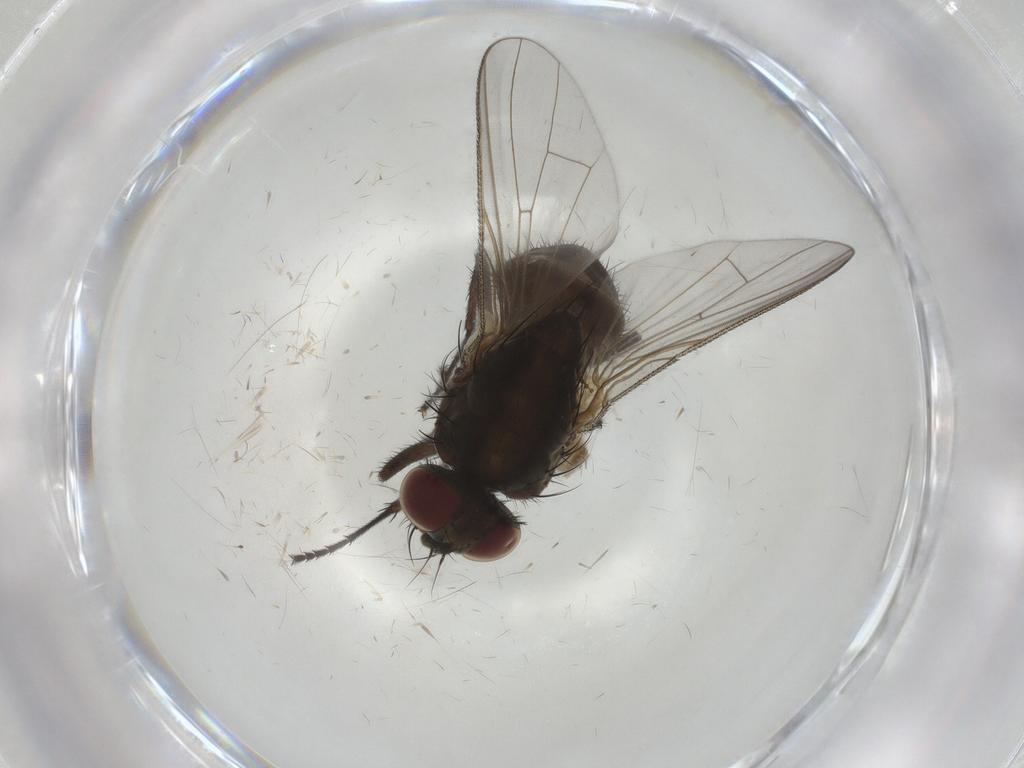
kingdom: Animalia
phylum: Arthropoda
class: Insecta
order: Diptera
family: Muscidae
